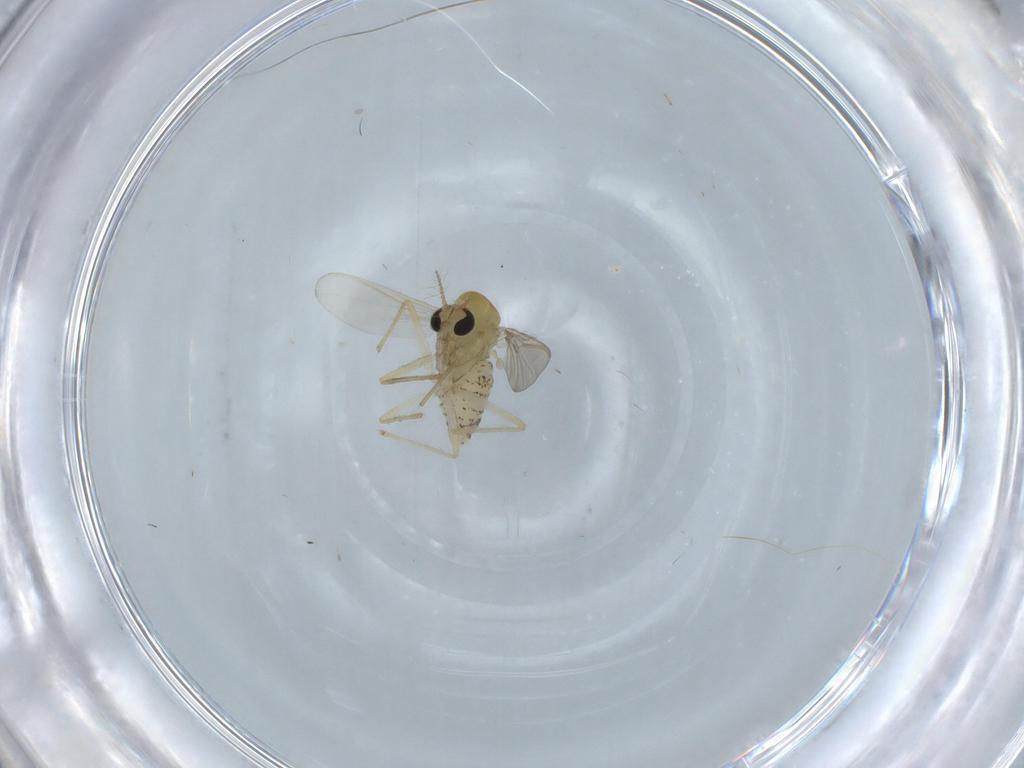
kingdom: Animalia
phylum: Arthropoda
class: Insecta
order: Diptera
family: Chironomidae
